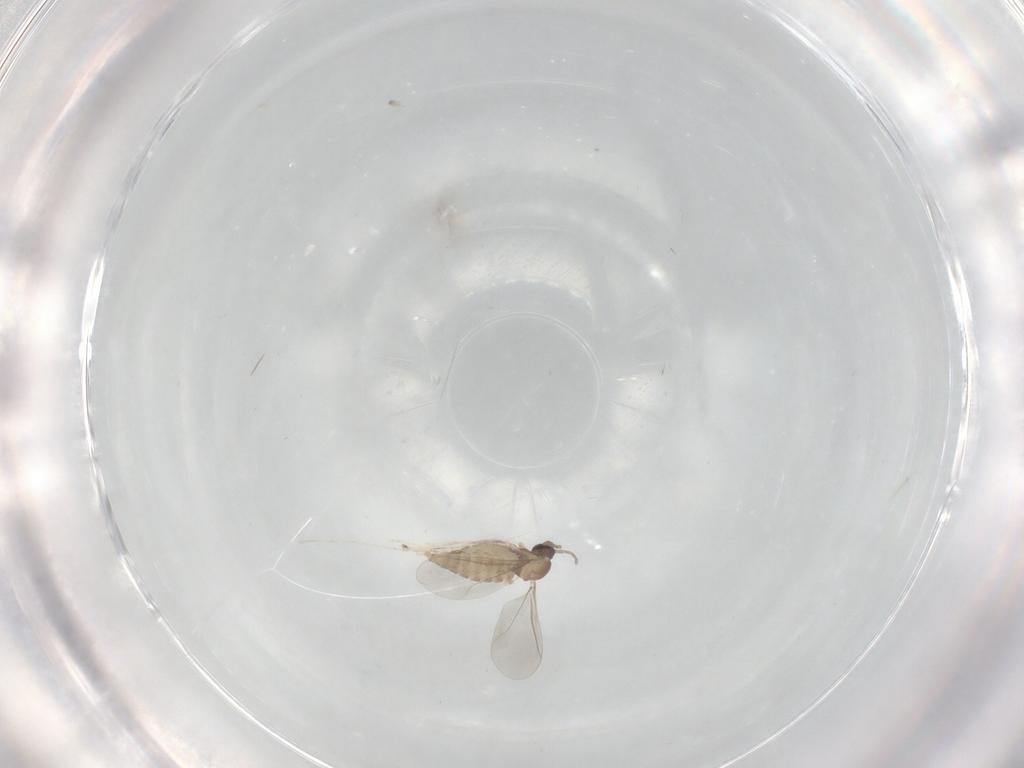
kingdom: Animalia
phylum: Arthropoda
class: Insecta
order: Diptera
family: Cecidomyiidae
